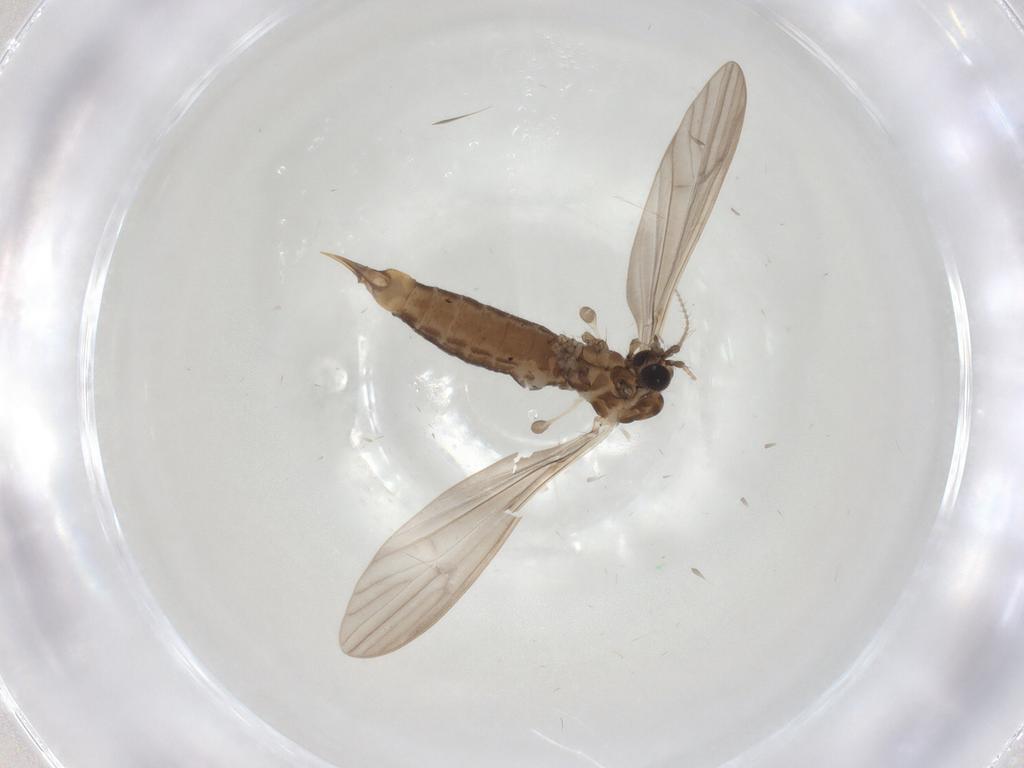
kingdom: Animalia
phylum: Arthropoda
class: Insecta
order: Diptera
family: Limoniidae
